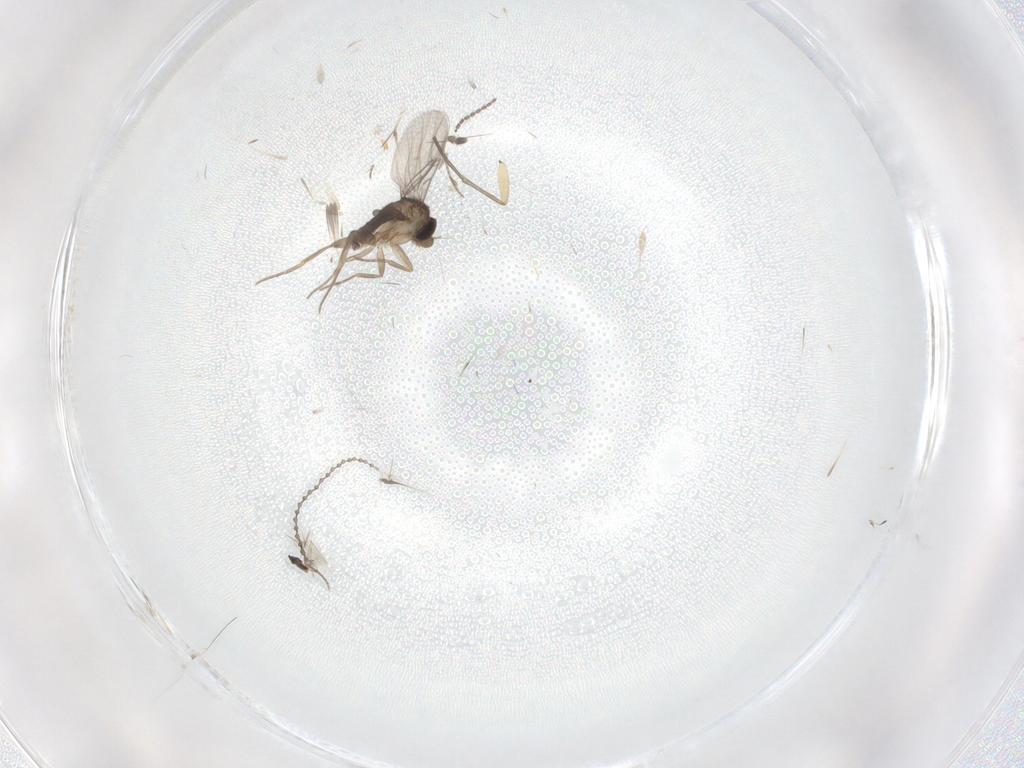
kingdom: Animalia
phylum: Arthropoda
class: Insecta
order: Diptera
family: Limoniidae
